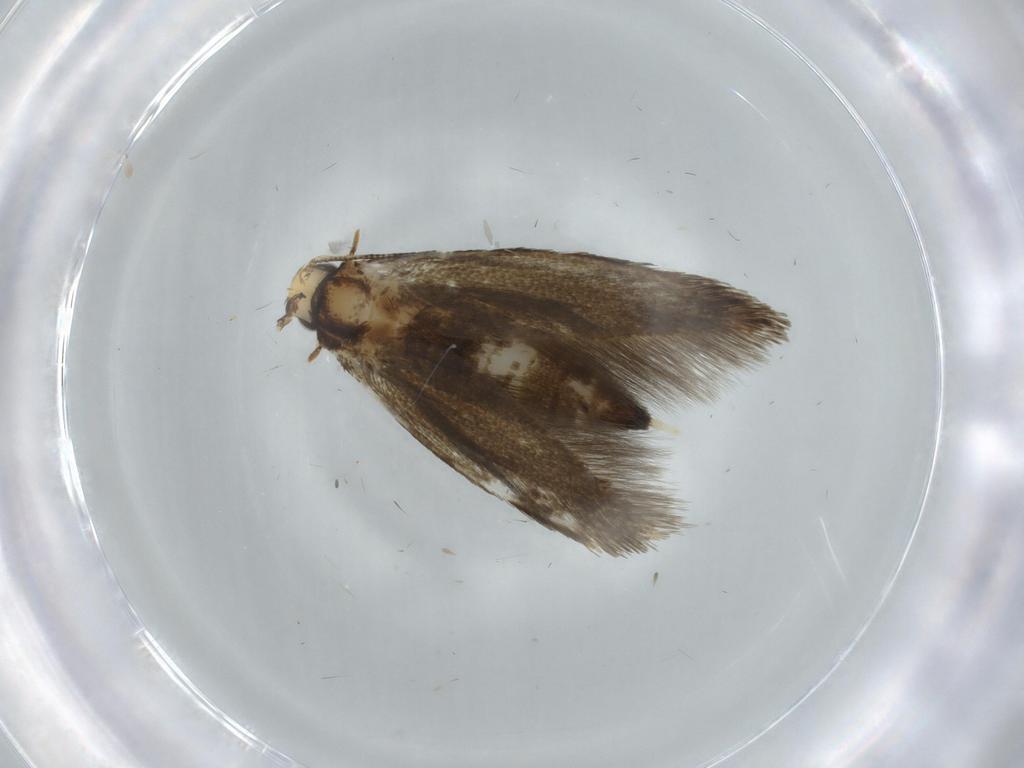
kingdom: Animalia
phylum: Arthropoda
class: Insecta
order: Lepidoptera
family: Tineidae
